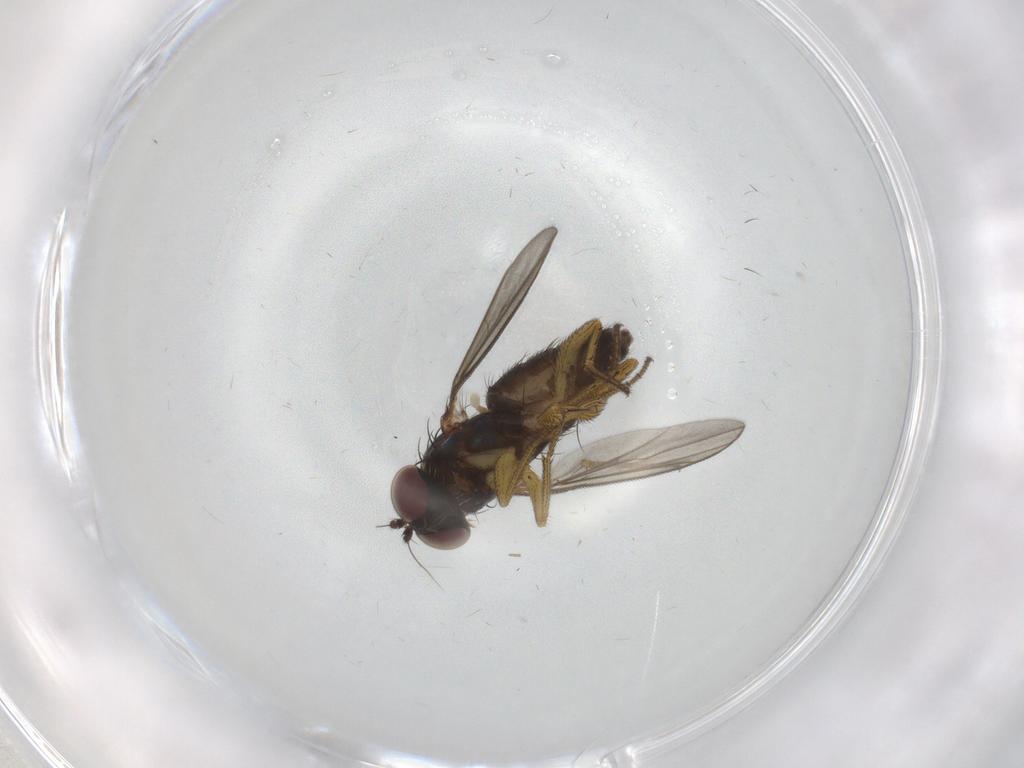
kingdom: Animalia
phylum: Arthropoda
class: Insecta
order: Diptera
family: Dolichopodidae
